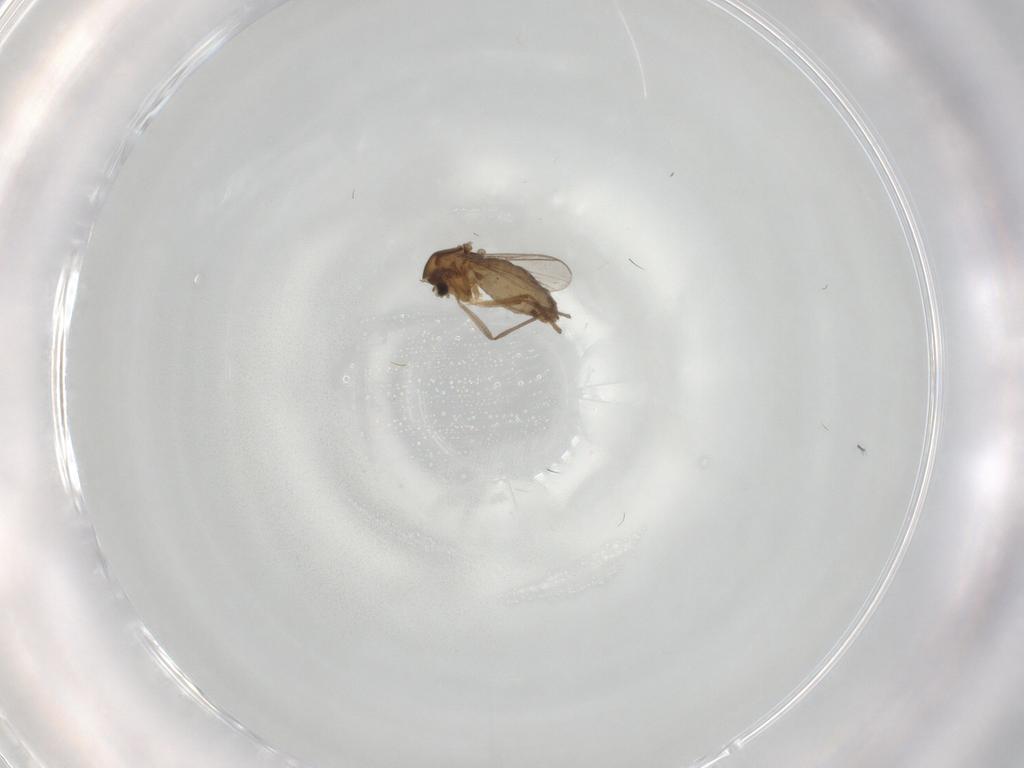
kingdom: Animalia
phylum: Arthropoda
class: Insecta
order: Diptera
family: Chironomidae
